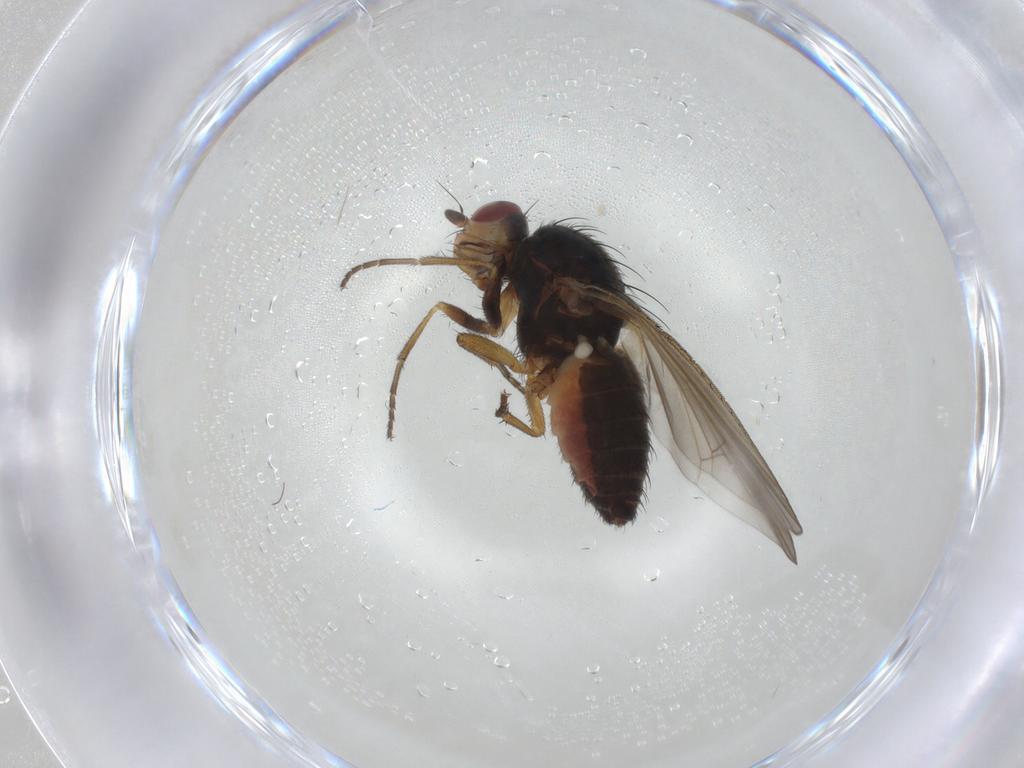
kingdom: Animalia
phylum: Arthropoda
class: Insecta
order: Diptera
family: Heleomyzidae
